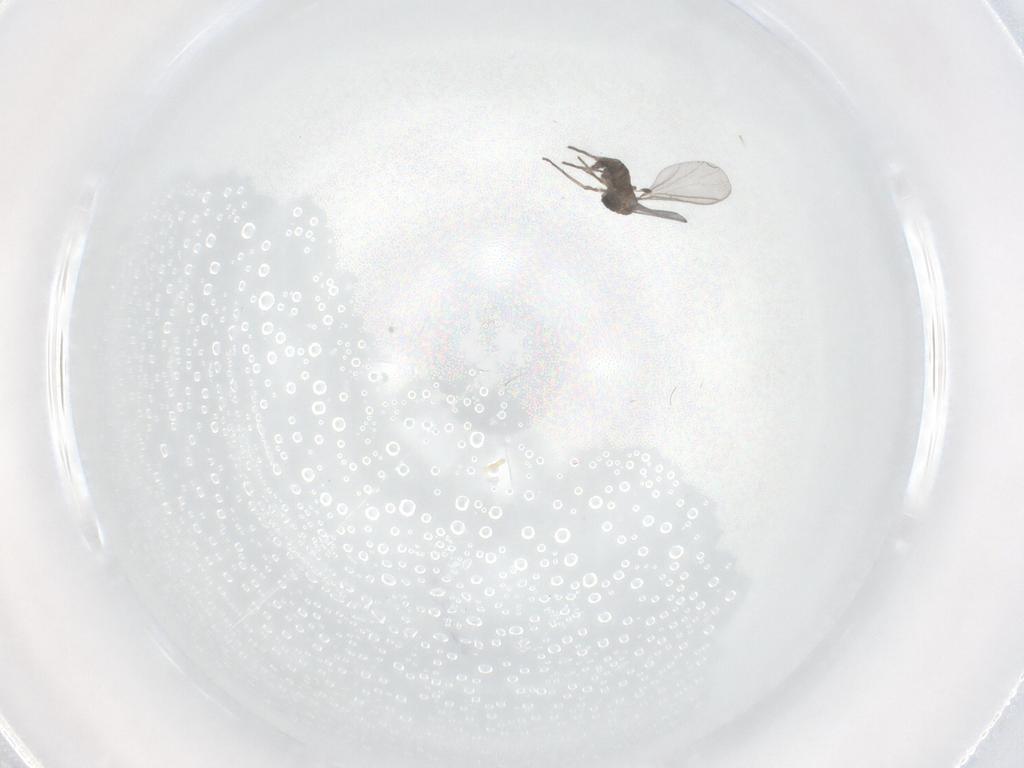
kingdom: Animalia
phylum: Arthropoda
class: Insecta
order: Diptera
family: Sciaridae
